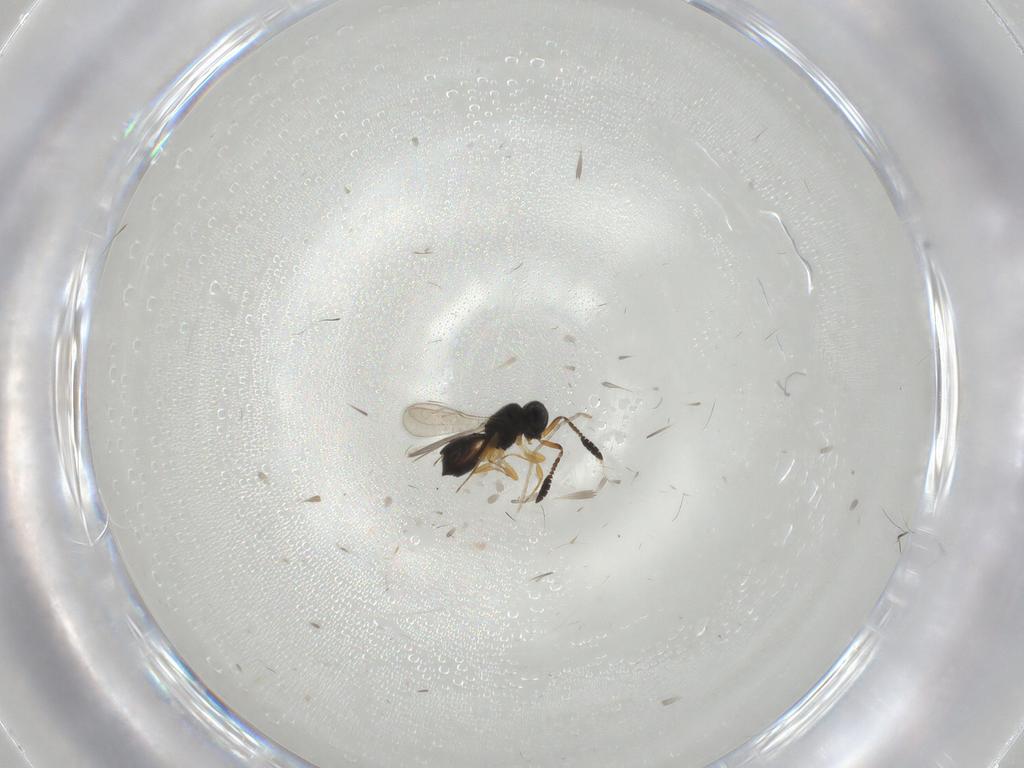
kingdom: Animalia
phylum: Arthropoda
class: Insecta
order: Hymenoptera
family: Scelionidae
